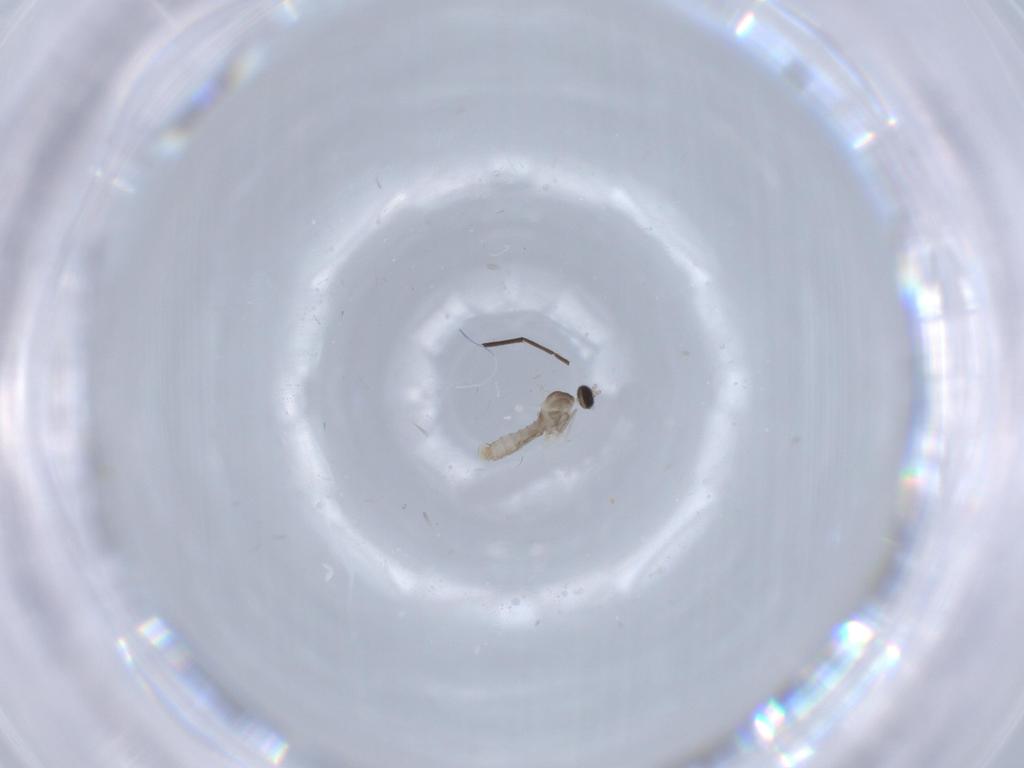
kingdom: Animalia
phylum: Arthropoda
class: Insecta
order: Diptera
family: Cecidomyiidae
